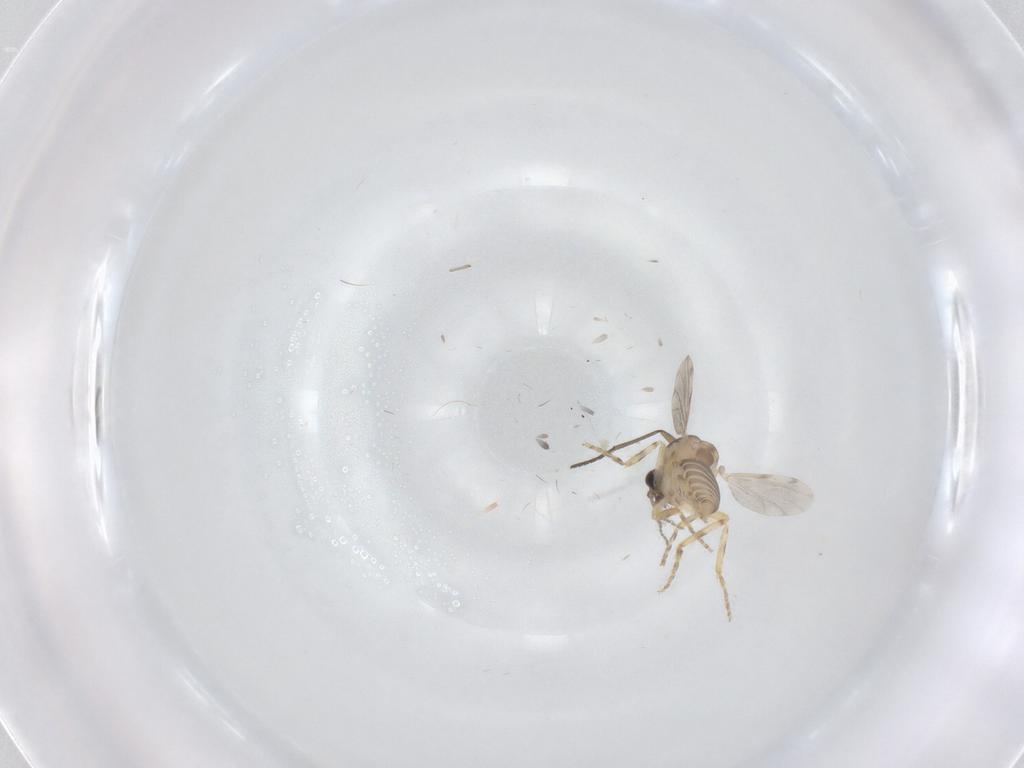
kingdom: Animalia
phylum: Arthropoda
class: Insecta
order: Diptera
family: Ceratopogonidae
